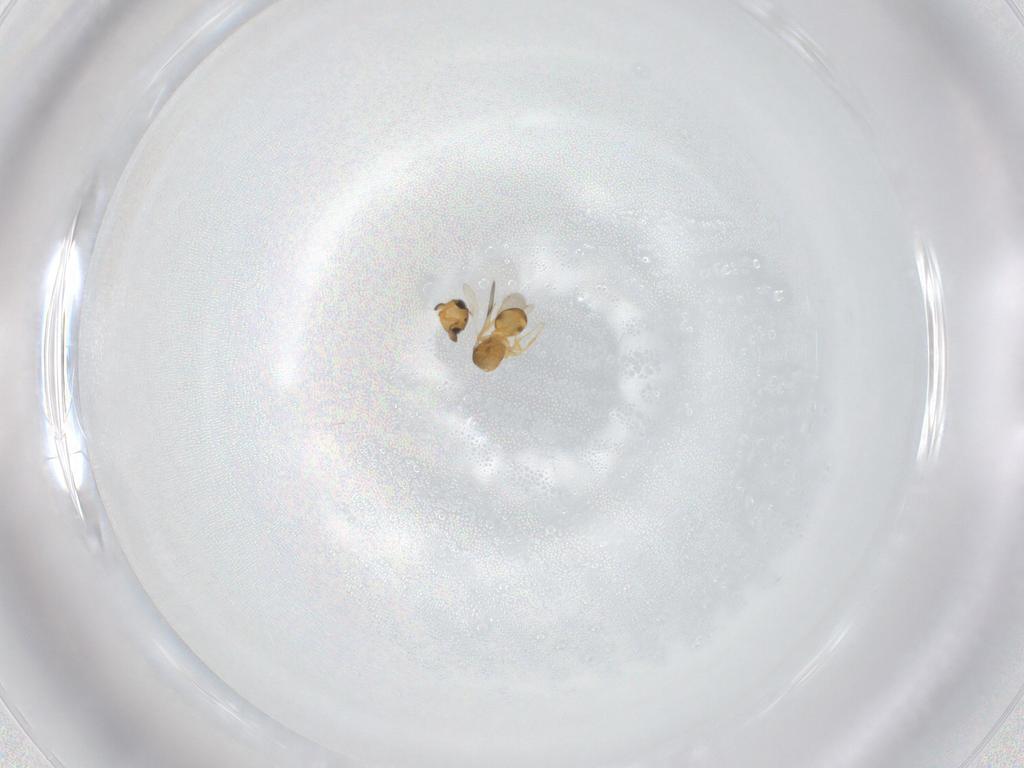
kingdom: Animalia
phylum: Arthropoda
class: Insecta
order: Hymenoptera
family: Scelionidae
